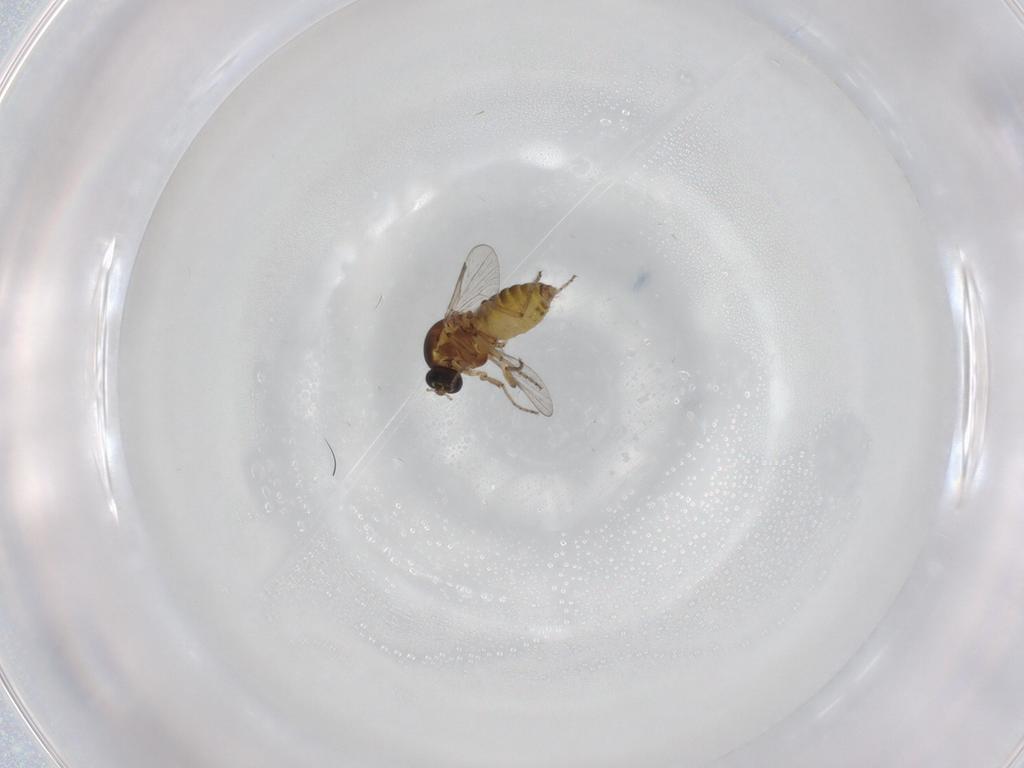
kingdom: Animalia
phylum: Arthropoda
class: Insecta
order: Diptera
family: Ceratopogonidae
